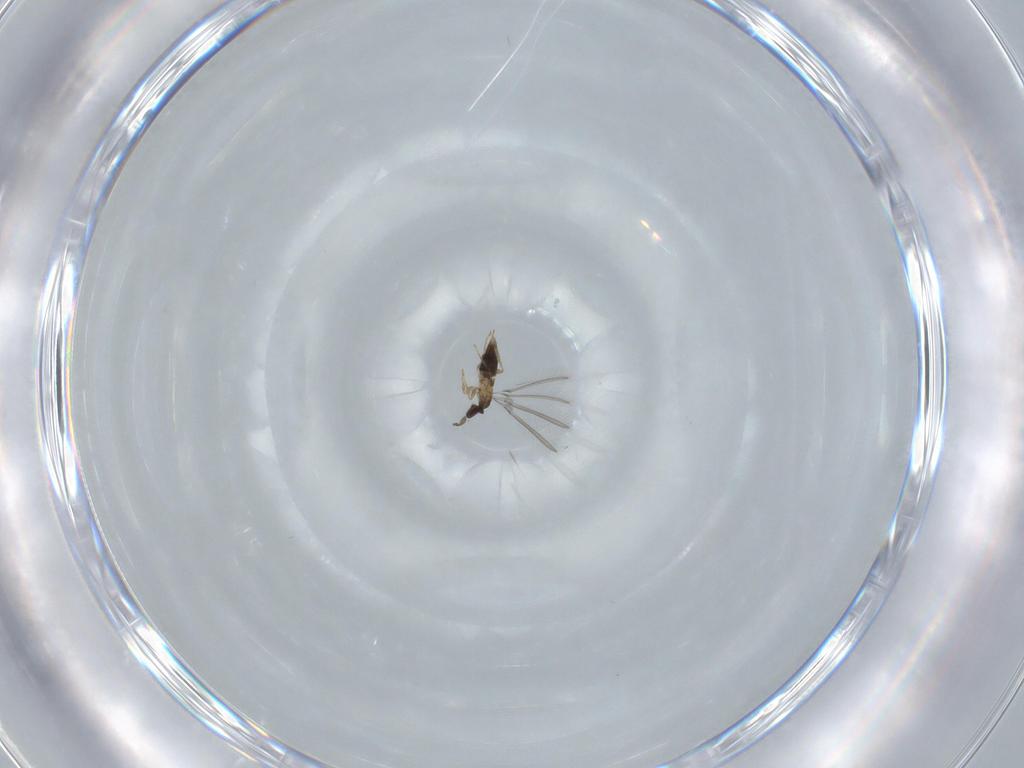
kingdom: Animalia
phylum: Arthropoda
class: Insecta
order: Hymenoptera
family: Mymaridae
